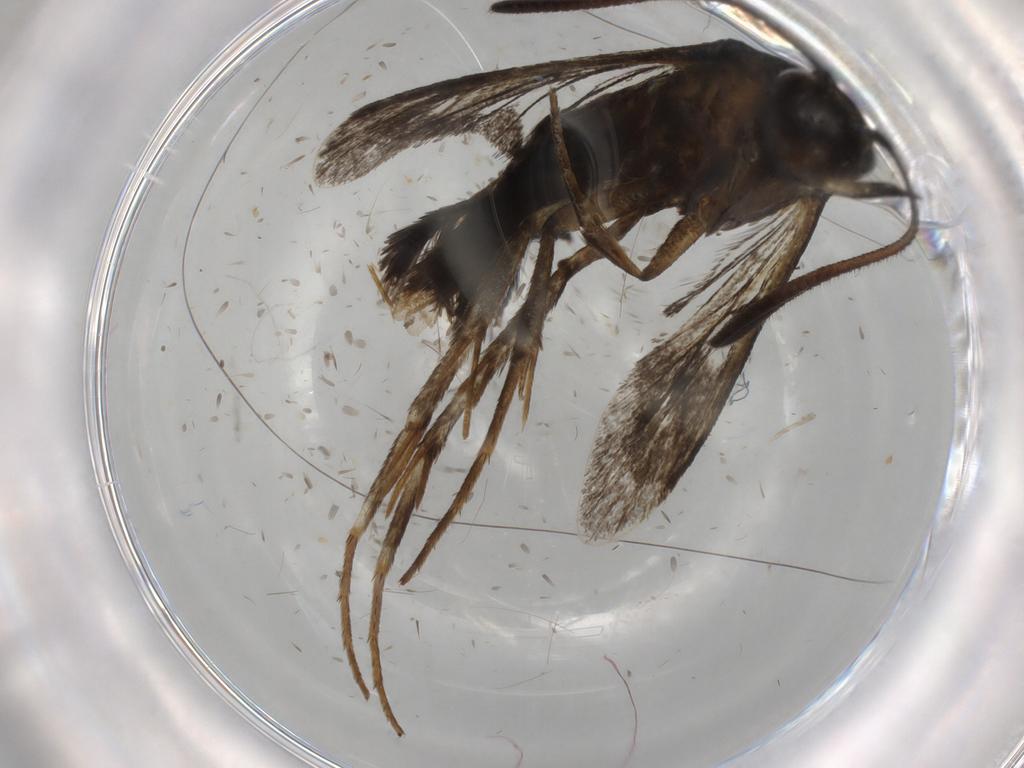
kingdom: Animalia
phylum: Arthropoda
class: Insecta
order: Lepidoptera
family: Sesiidae
